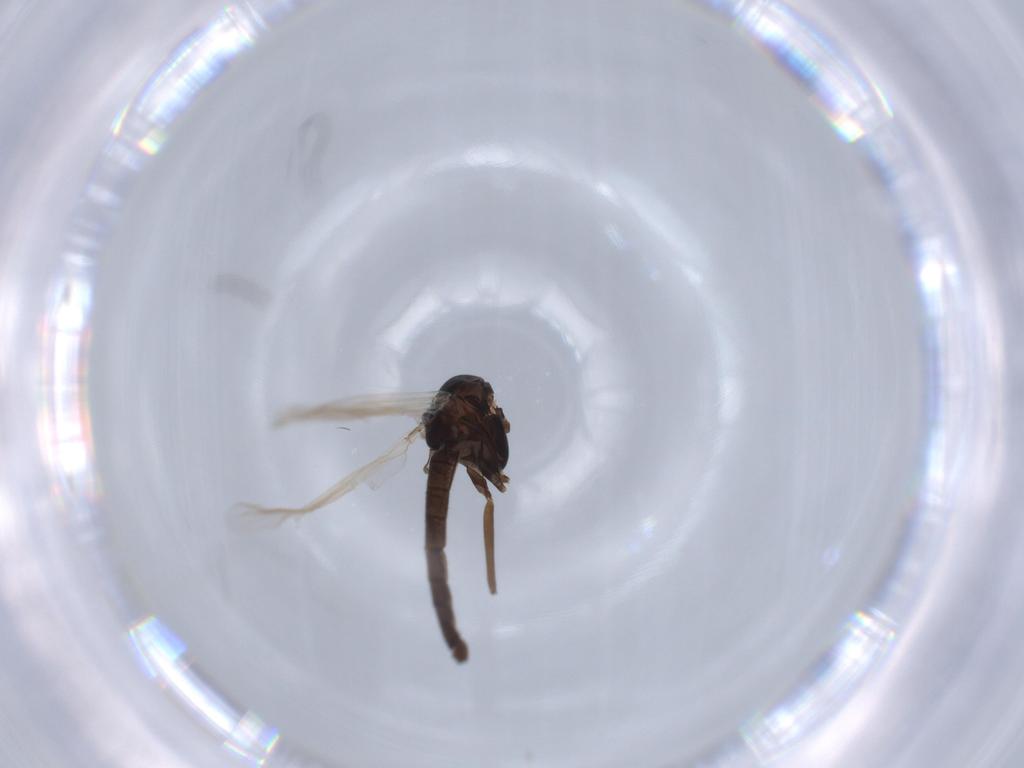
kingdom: Animalia
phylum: Arthropoda
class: Insecta
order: Diptera
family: Chironomidae
